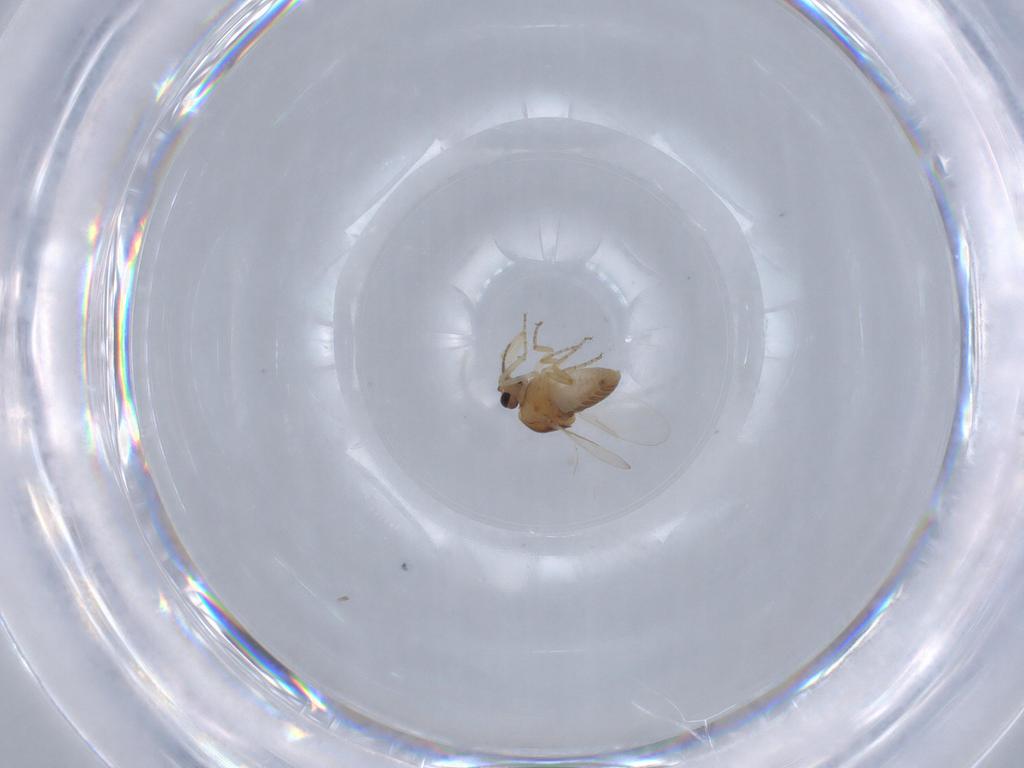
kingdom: Animalia
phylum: Arthropoda
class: Insecta
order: Diptera
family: Ceratopogonidae
